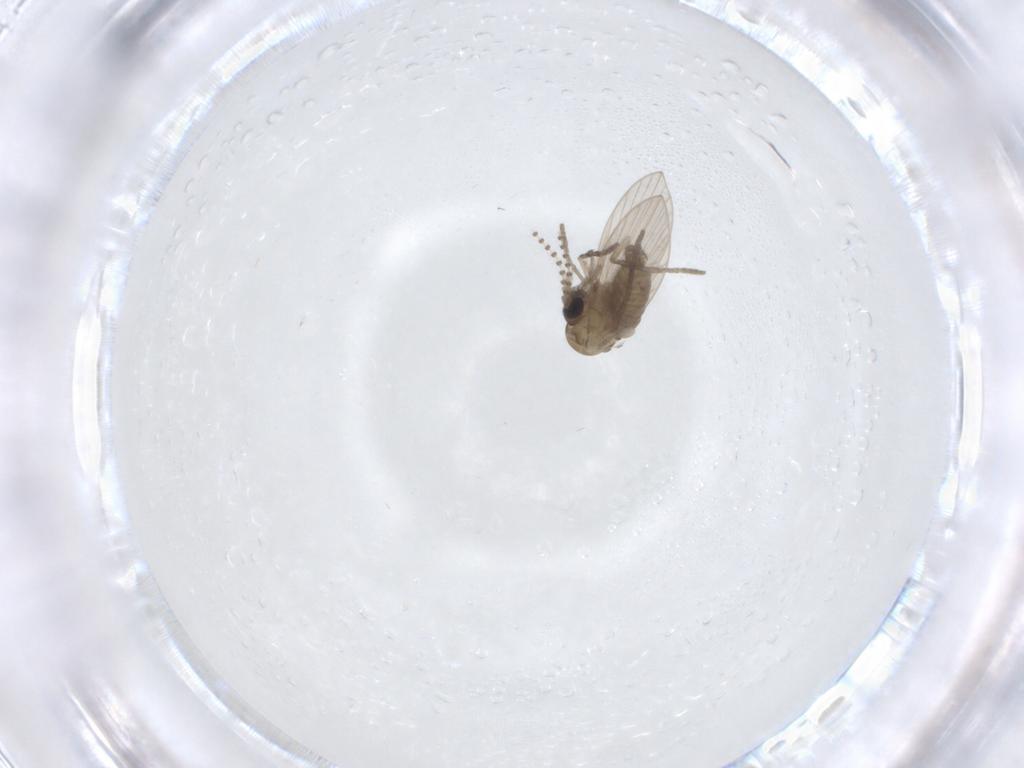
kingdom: Animalia
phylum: Arthropoda
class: Insecta
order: Diptera
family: Psychodidae
